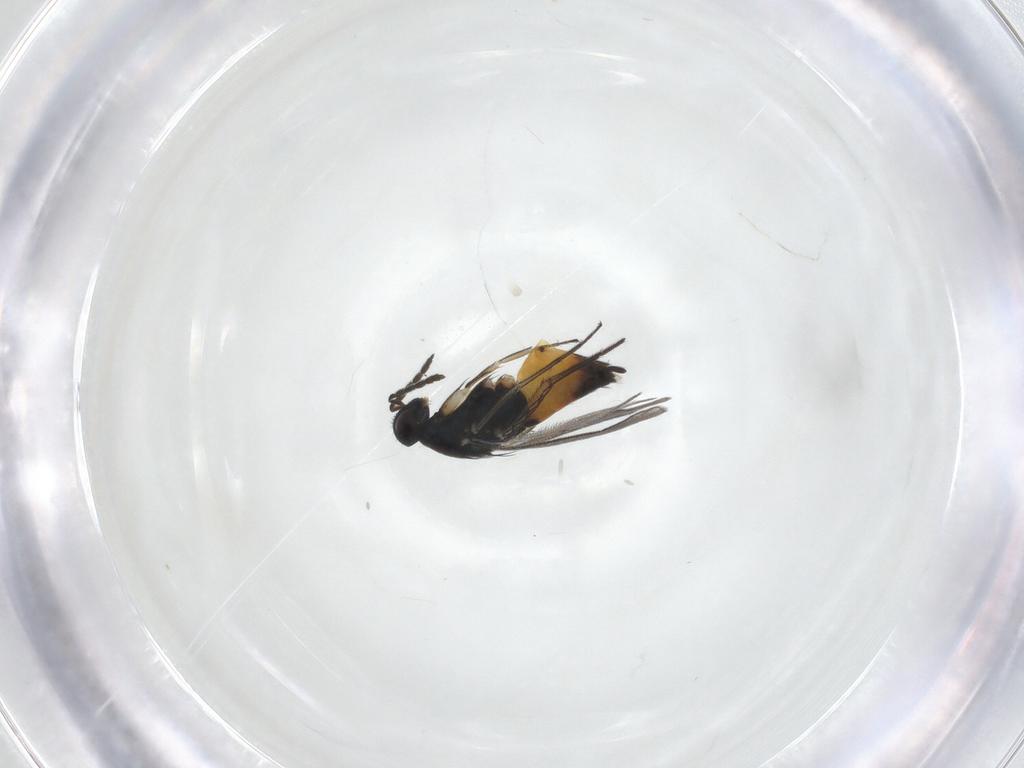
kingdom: Animalia
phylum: Arthropoda
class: Insecta
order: Hymenoptera
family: Eulophidae
